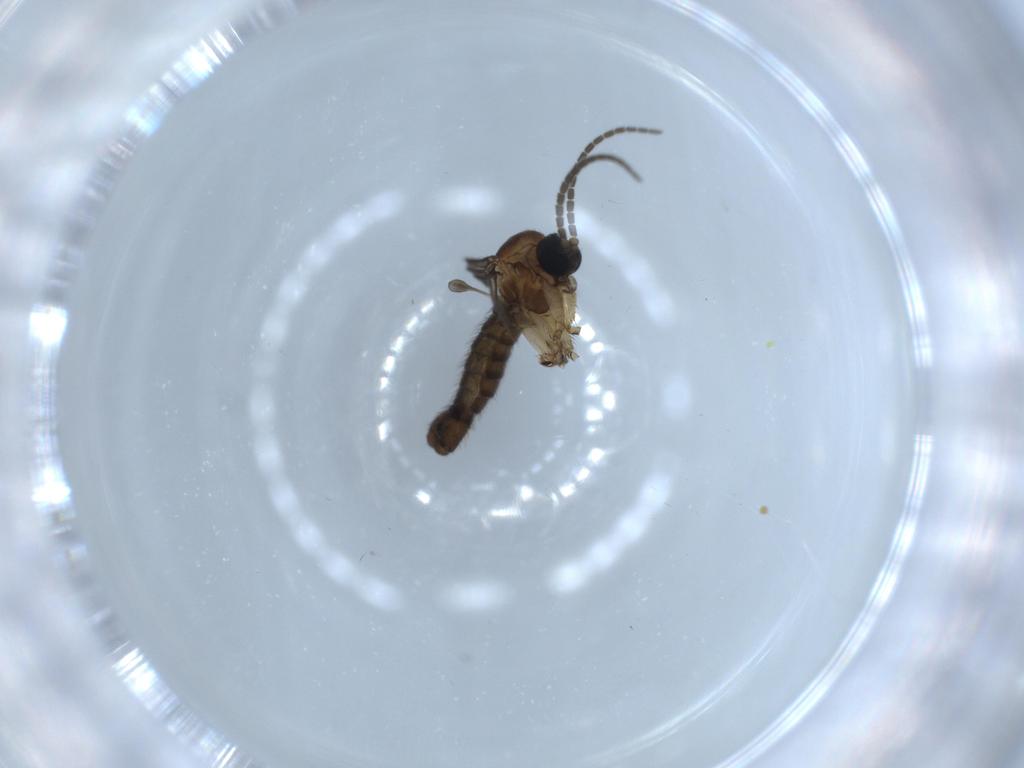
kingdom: Animalia
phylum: Arthropoda
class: Insecta
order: Diptera
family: Sciaridae
